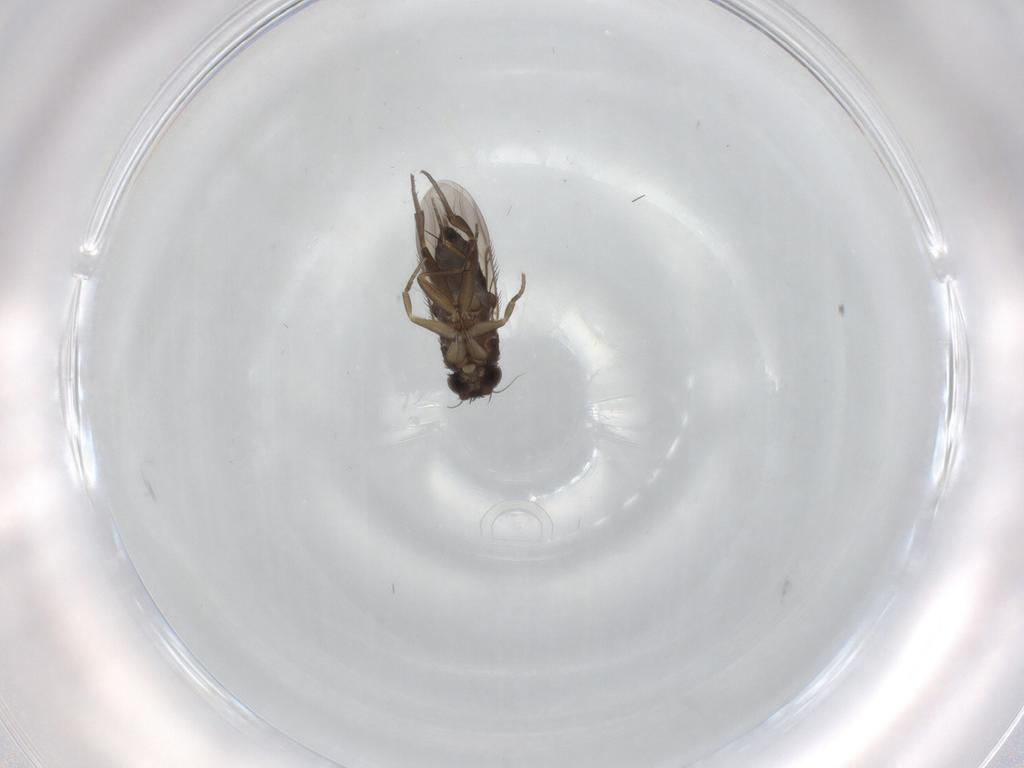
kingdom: Animalia
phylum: Arthropoda
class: Insecta
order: Diptera
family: Phoridae
